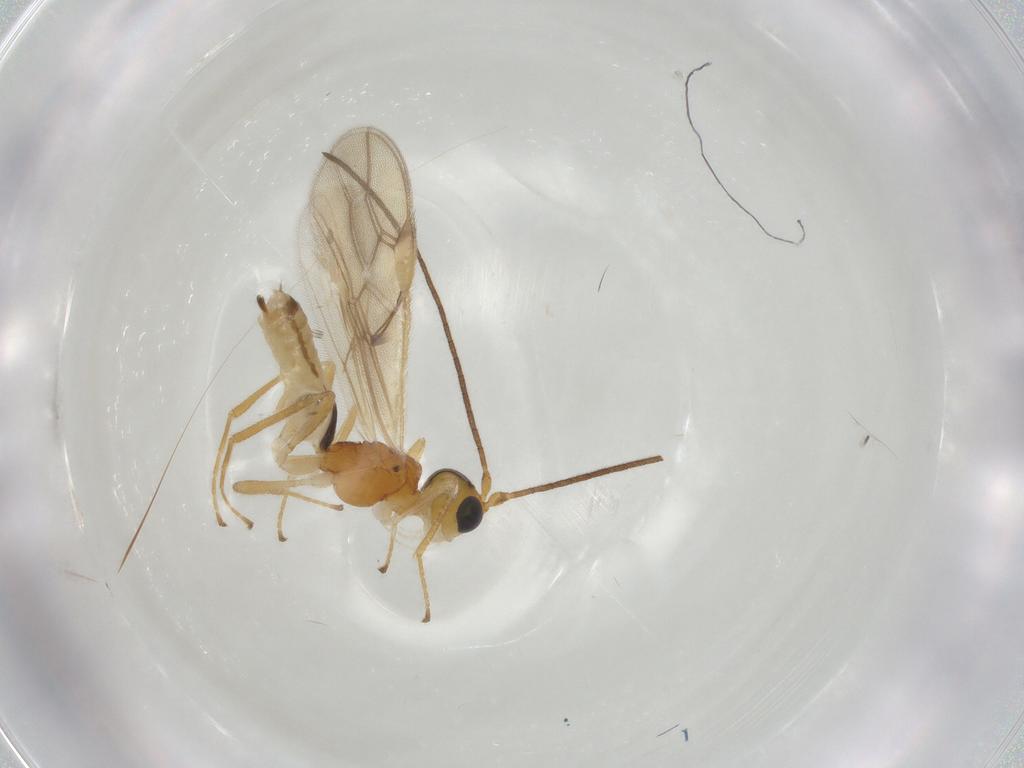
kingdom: Animalia
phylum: Arthropoda
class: Insecta
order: Hymenoptera
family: Braconidae
